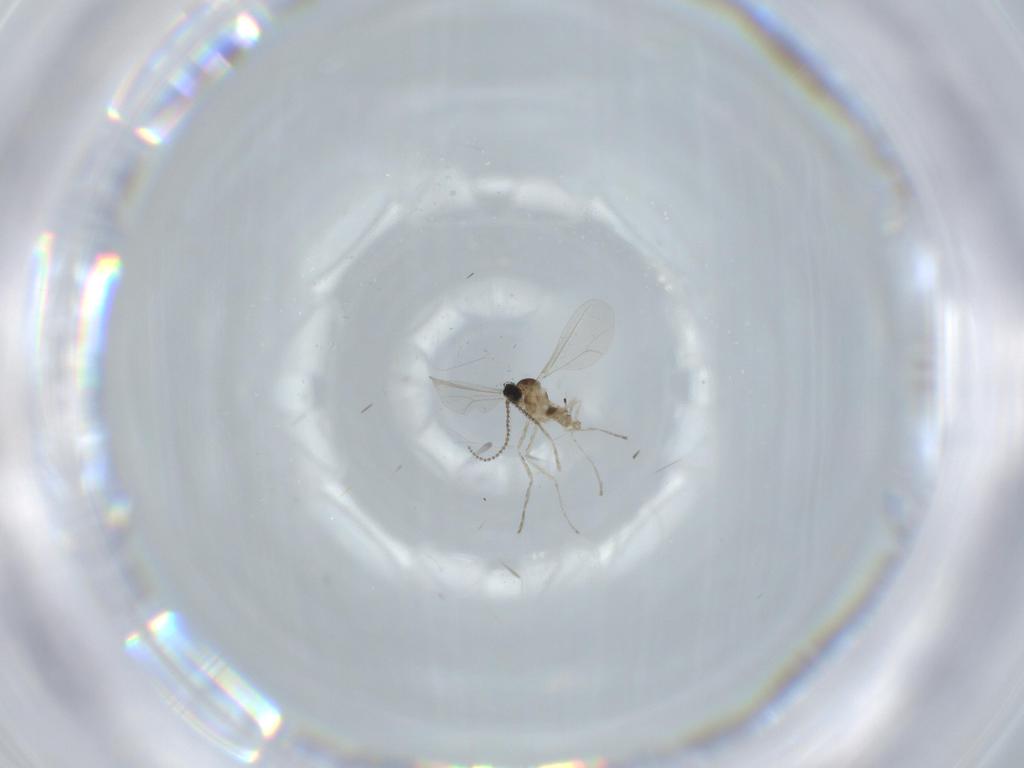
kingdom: Animalia
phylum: Arthropoda
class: Insecta
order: Diptera
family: Cecidomyiidae
